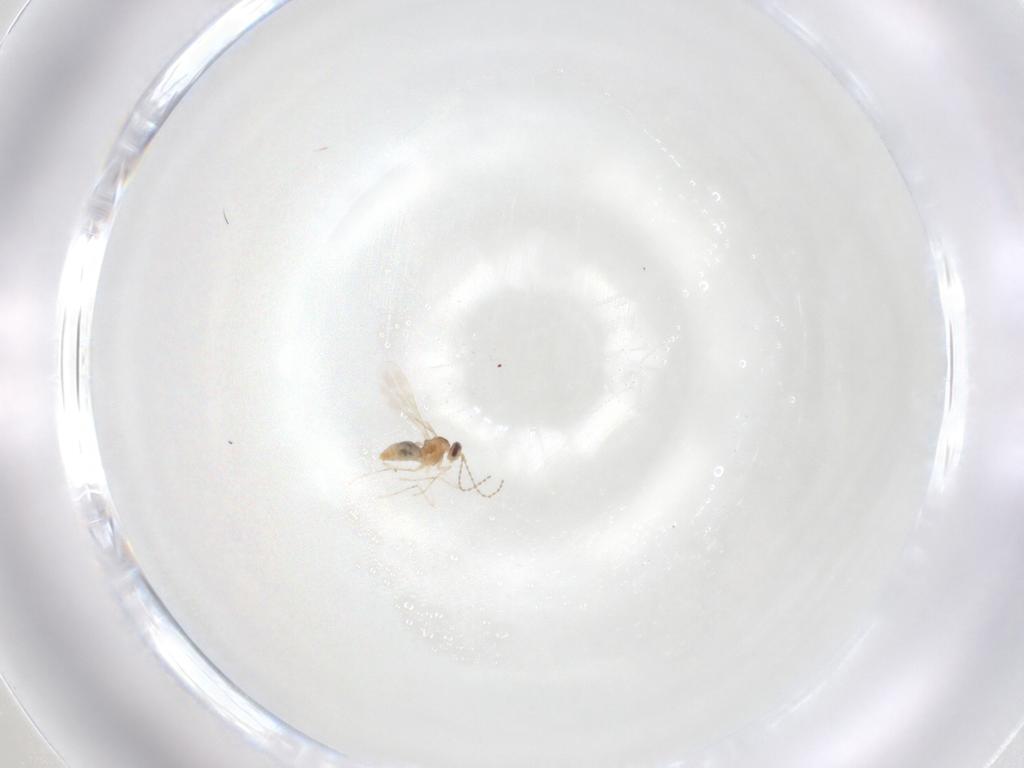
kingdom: Animalia
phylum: Arthropoda
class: Insecta
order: Diptera
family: Cecidomyiidae
